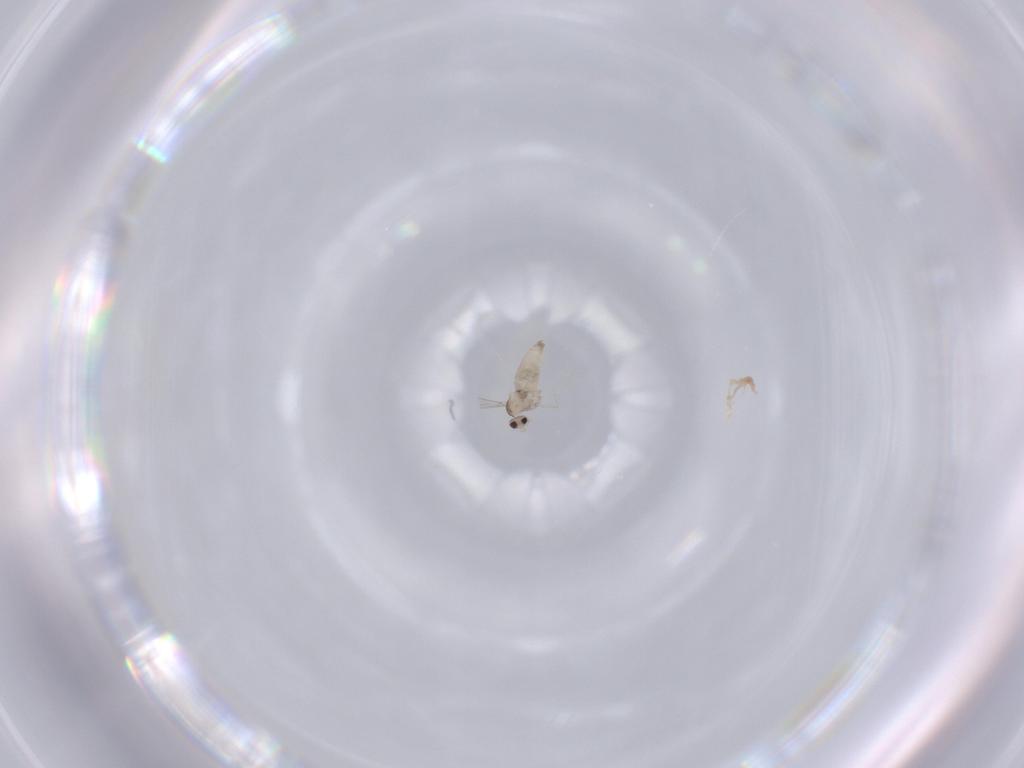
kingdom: Animalia
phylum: Arthropoda
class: Insecta
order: Diptera
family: Cecidomyiidae
